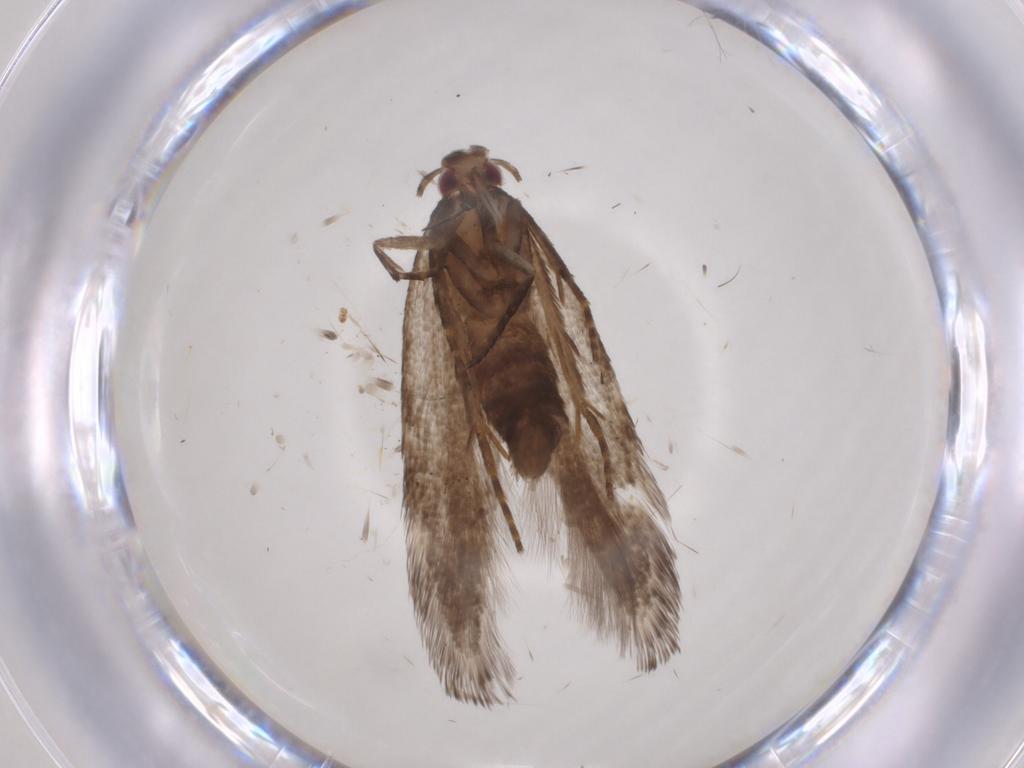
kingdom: Animalia
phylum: Arthropoda
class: Insecta
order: Lepidoptera
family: Gelechiidae
